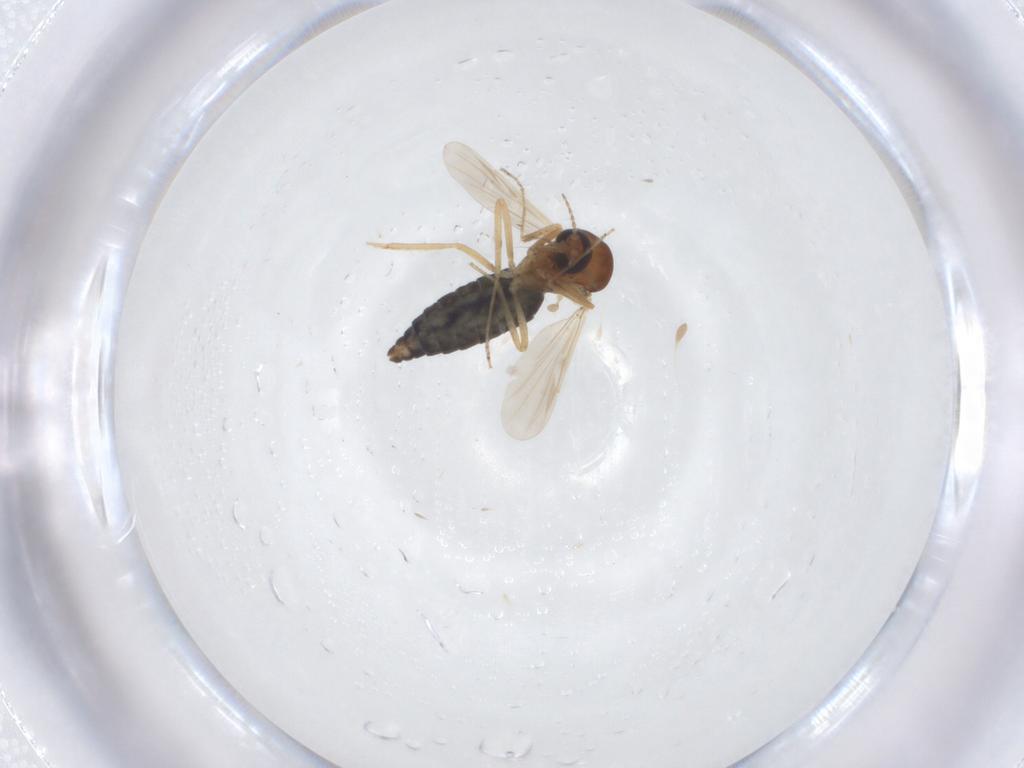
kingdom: Animalia
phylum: Arthropoda
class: Insecta
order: Diptera
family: Ceratopogonidae
